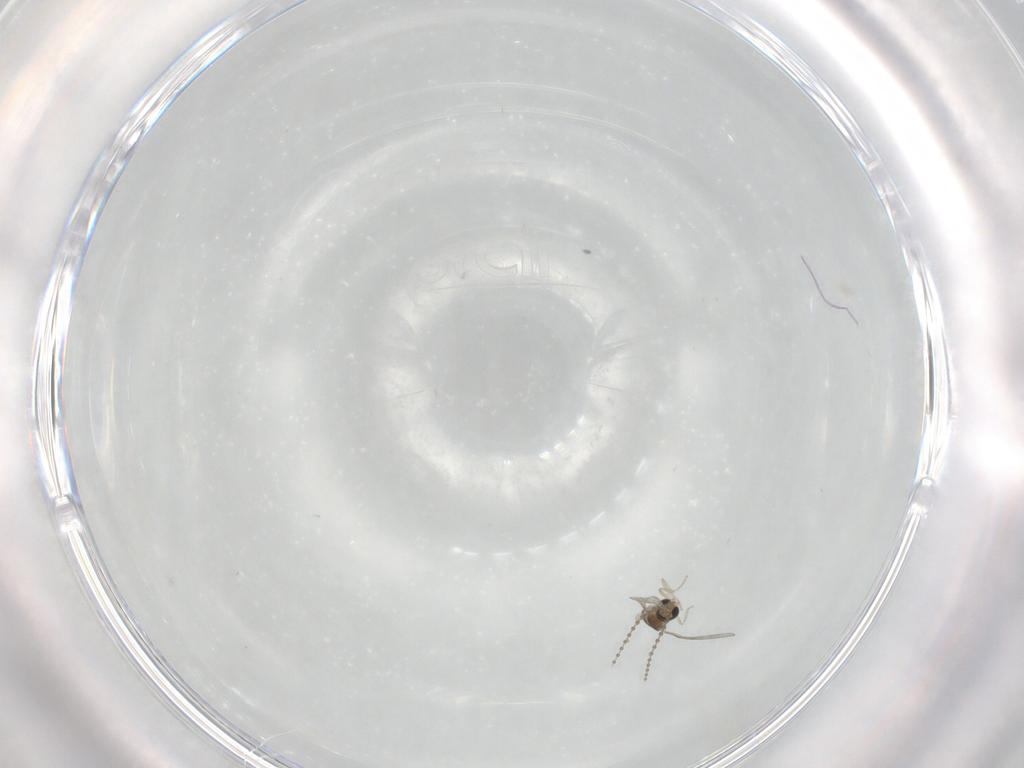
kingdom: Animalia
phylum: Arthropoda
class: Insecta
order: Diptera
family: Cecidomyiidae
